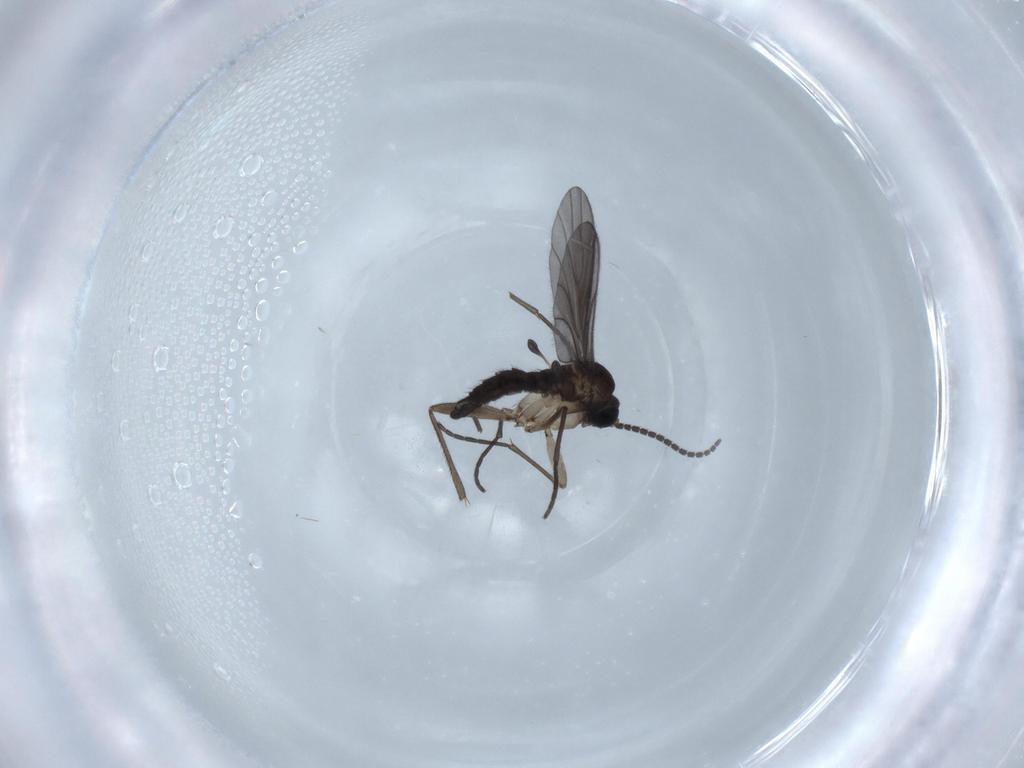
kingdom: Animalia
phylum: Arthropoda
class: Insecta
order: Diptera
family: Sciaridae
